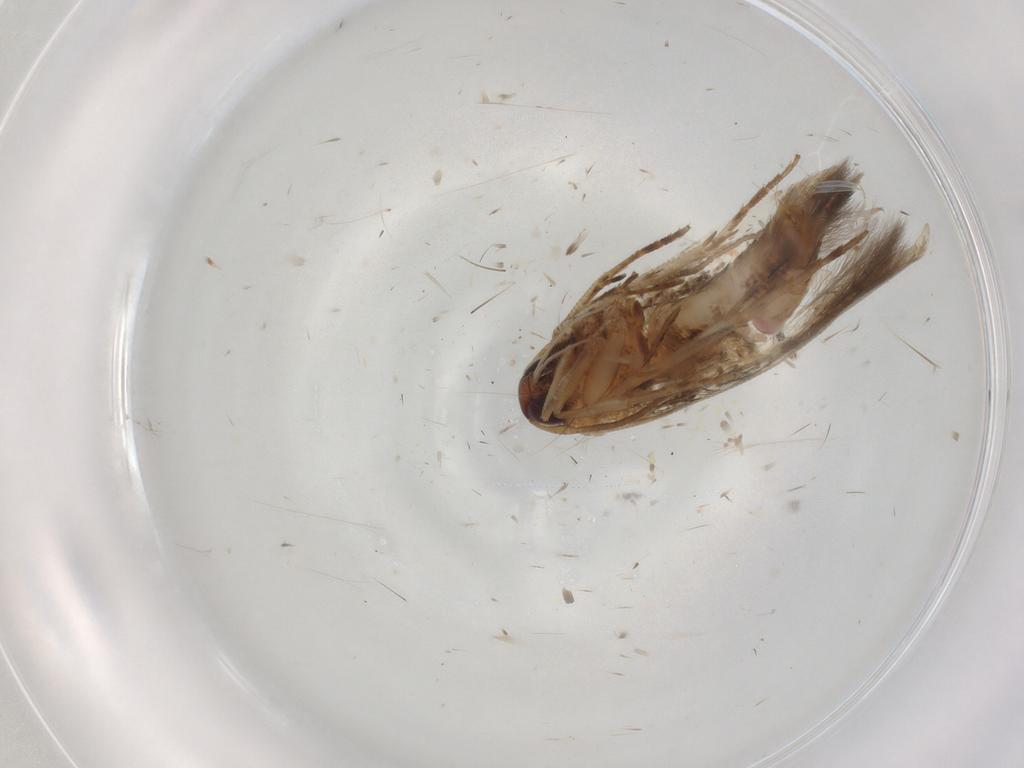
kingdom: Animalia
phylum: Arthropoda
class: Insecta
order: Lepidoptera
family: Cosmopterigidae
